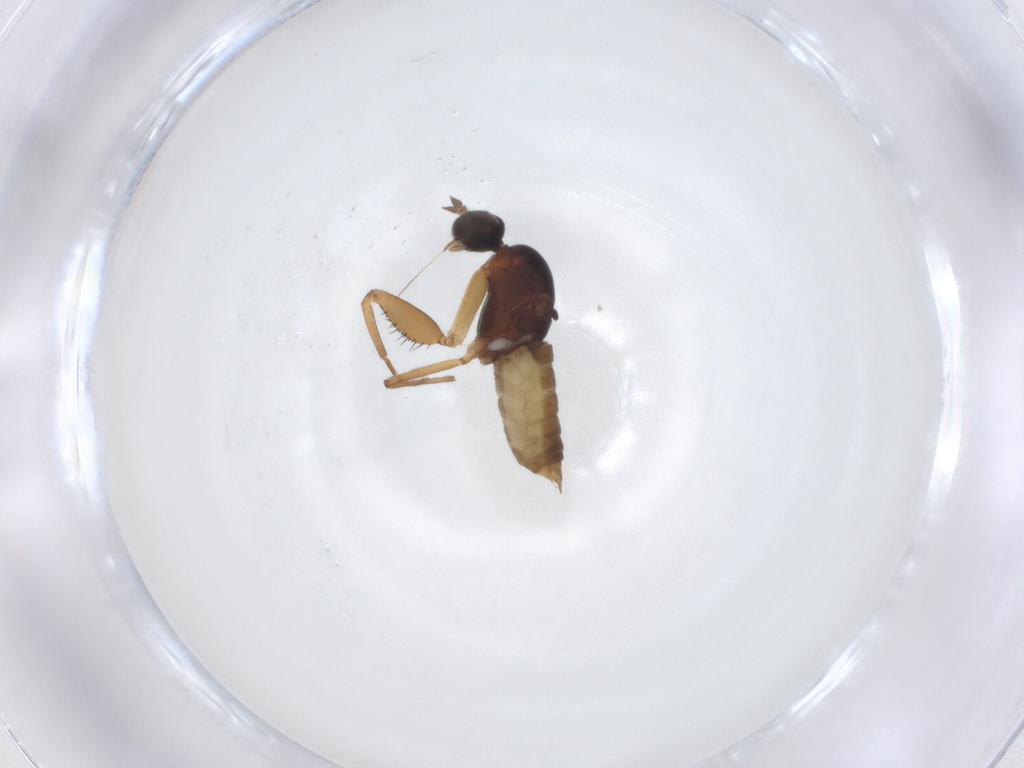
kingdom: Animalia
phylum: Arthropoda
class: Insecta
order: Diptera
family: Empididae
